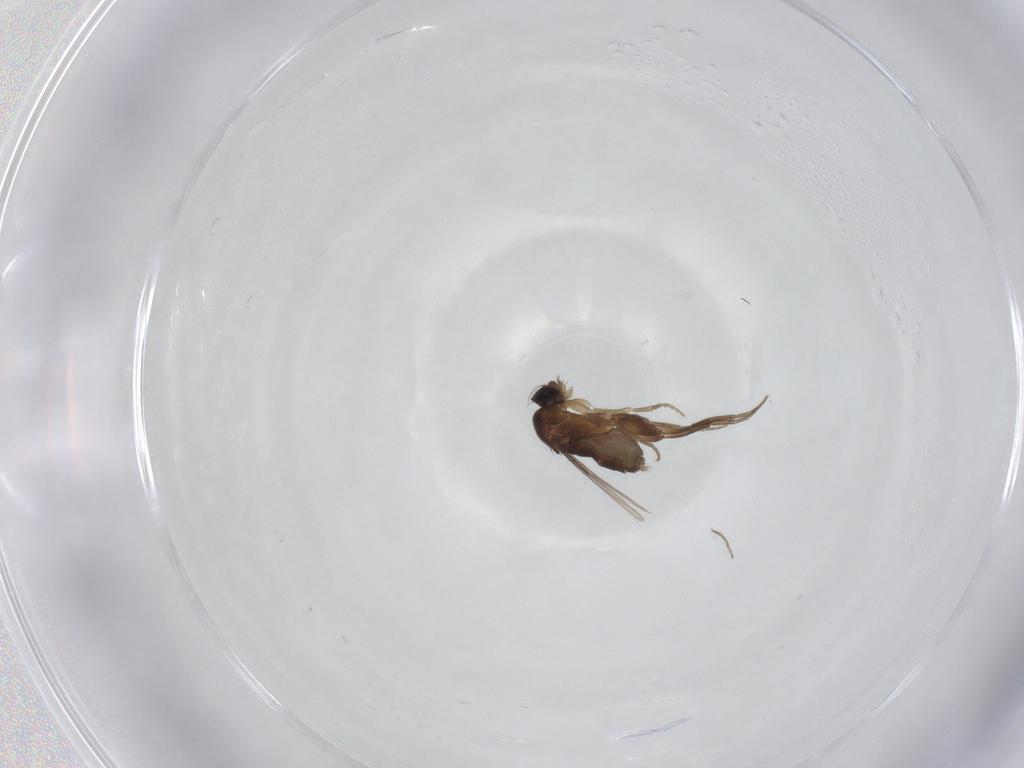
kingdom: Animalia
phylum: Arthropoda
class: Insecta
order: Diptera
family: Phoridae
